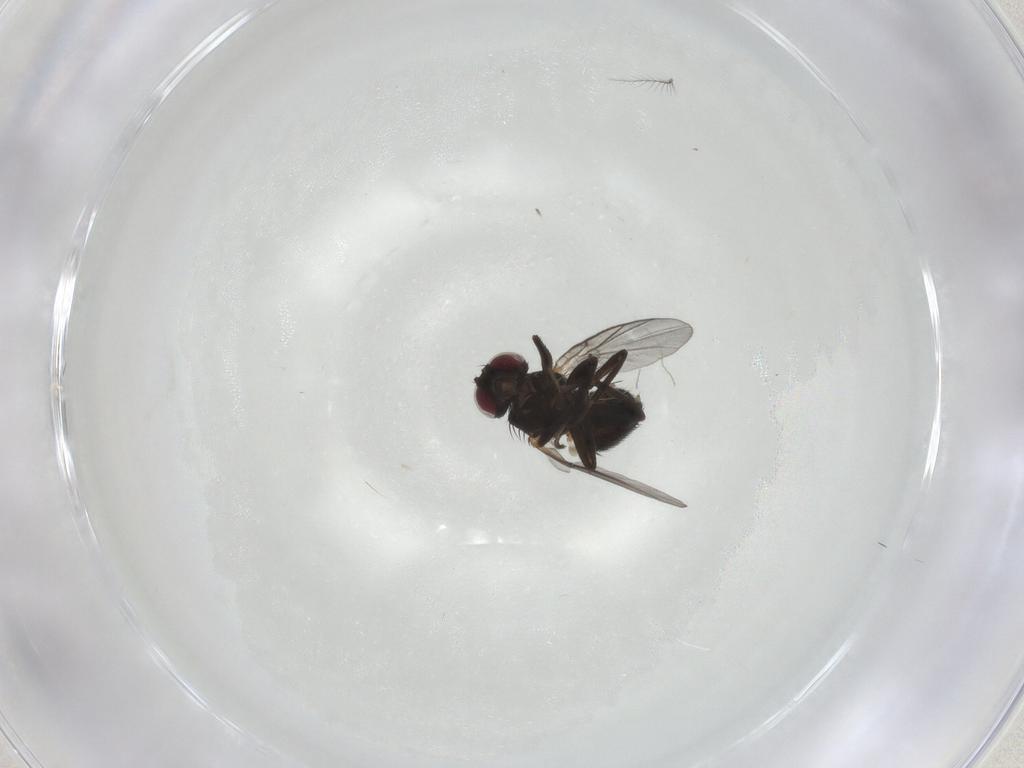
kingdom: Animalia
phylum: Arthropoda
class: Insecta
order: Diptera
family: Agromyzidae
